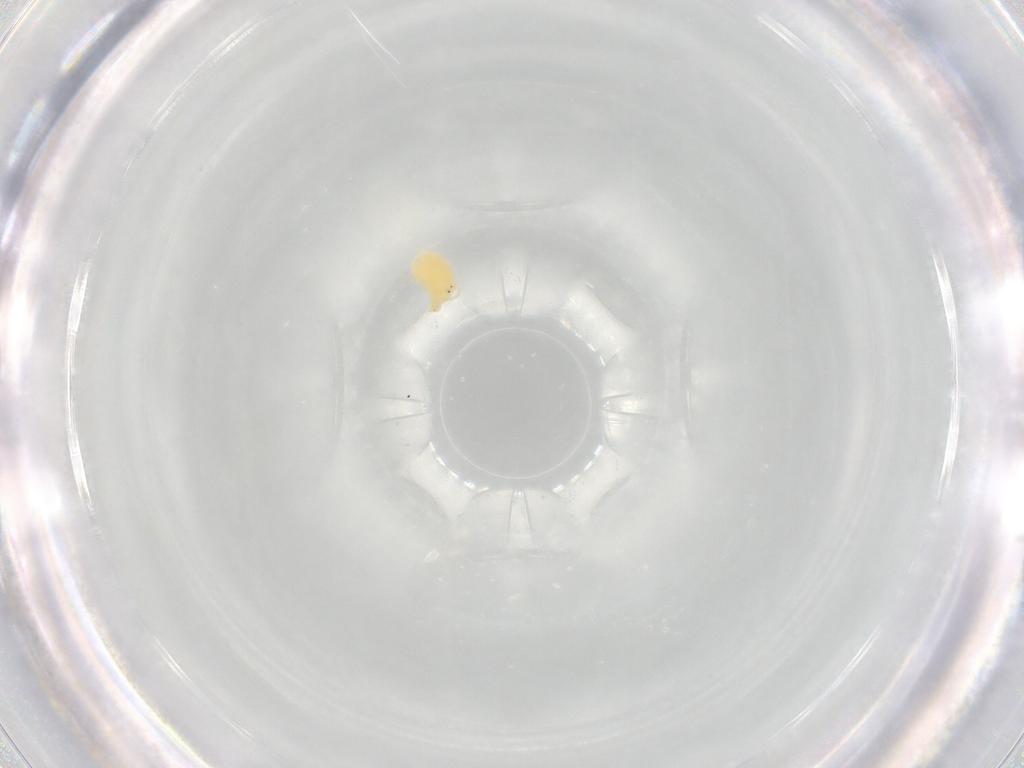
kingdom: Animalia
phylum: Arthropoda
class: Arachnida
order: Trombidiformes
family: Hydryphantidae
